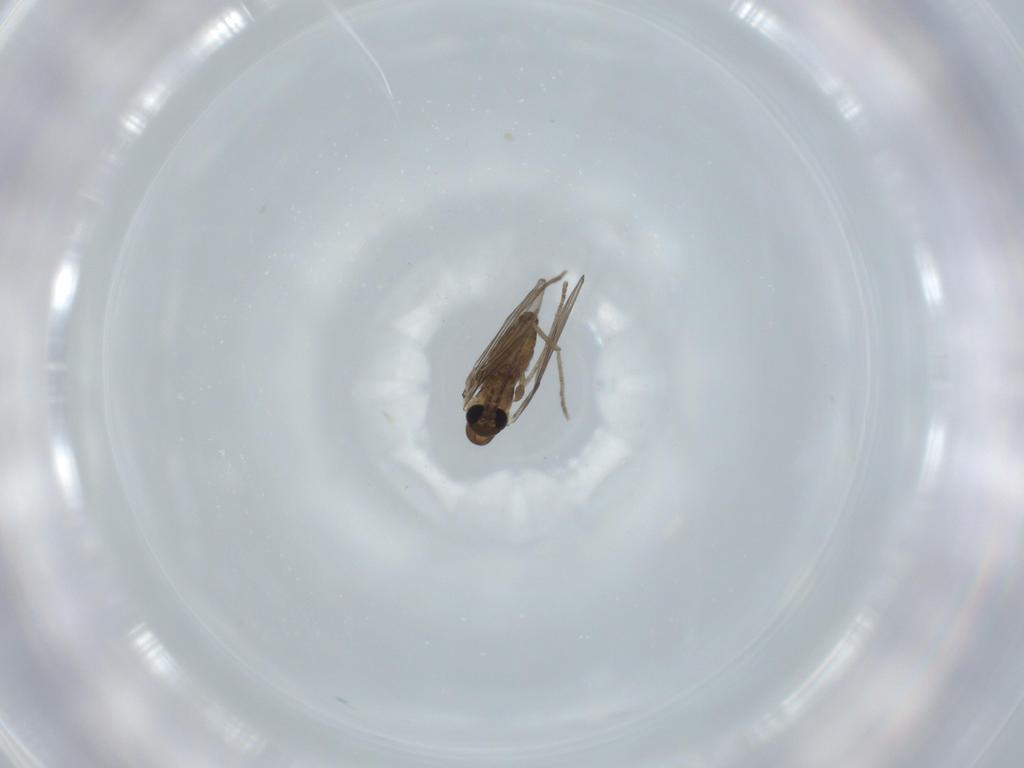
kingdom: Animalia
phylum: Arthropoda
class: Insecta
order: Diptera
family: Psychodidae
